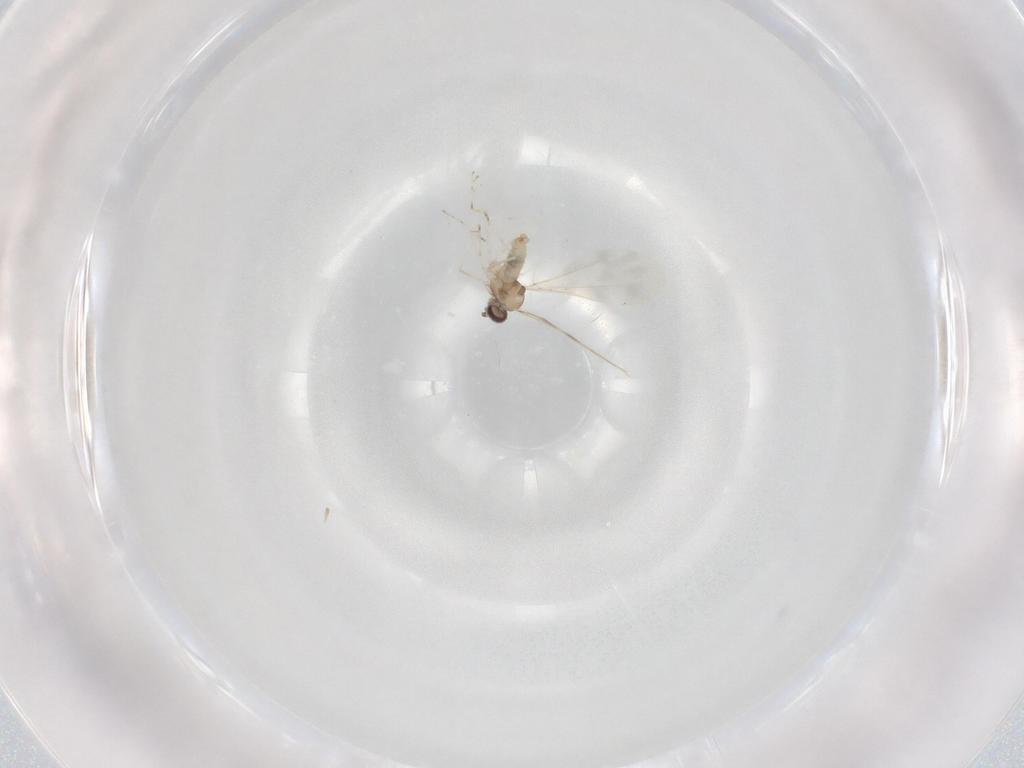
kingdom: Animalia
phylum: Arthropoda
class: Insecta
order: Diptera
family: Cecidomyiidae
